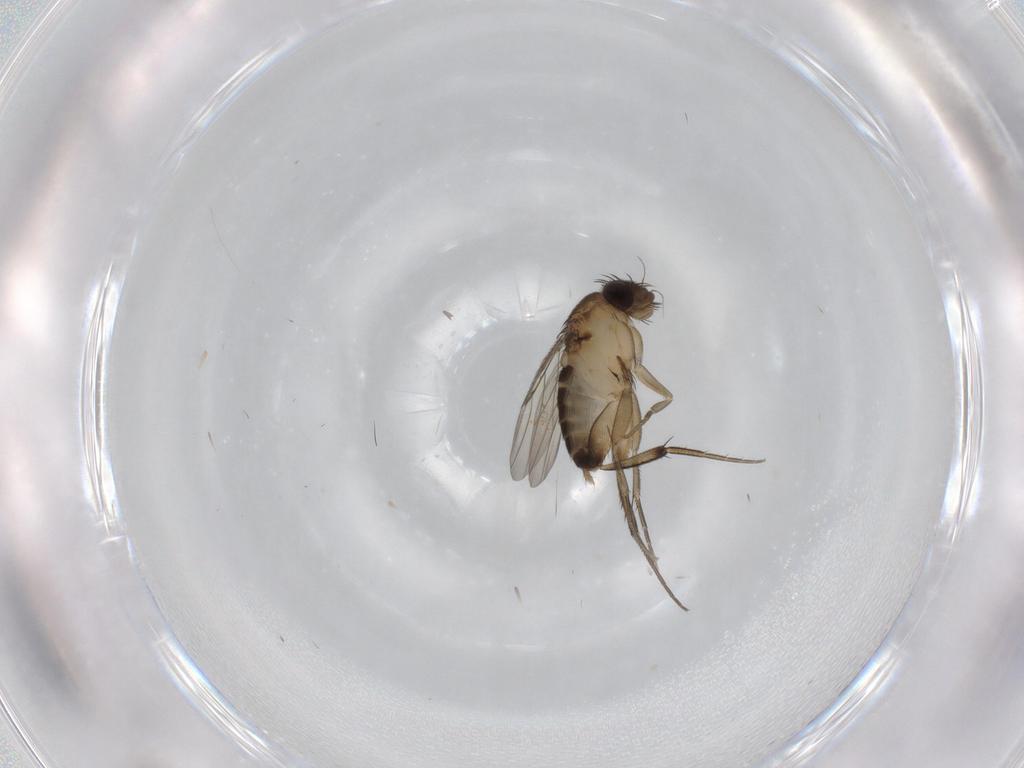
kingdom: Animalia
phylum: Arthropoda
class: Insecta
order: Diptera
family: Phoridae
